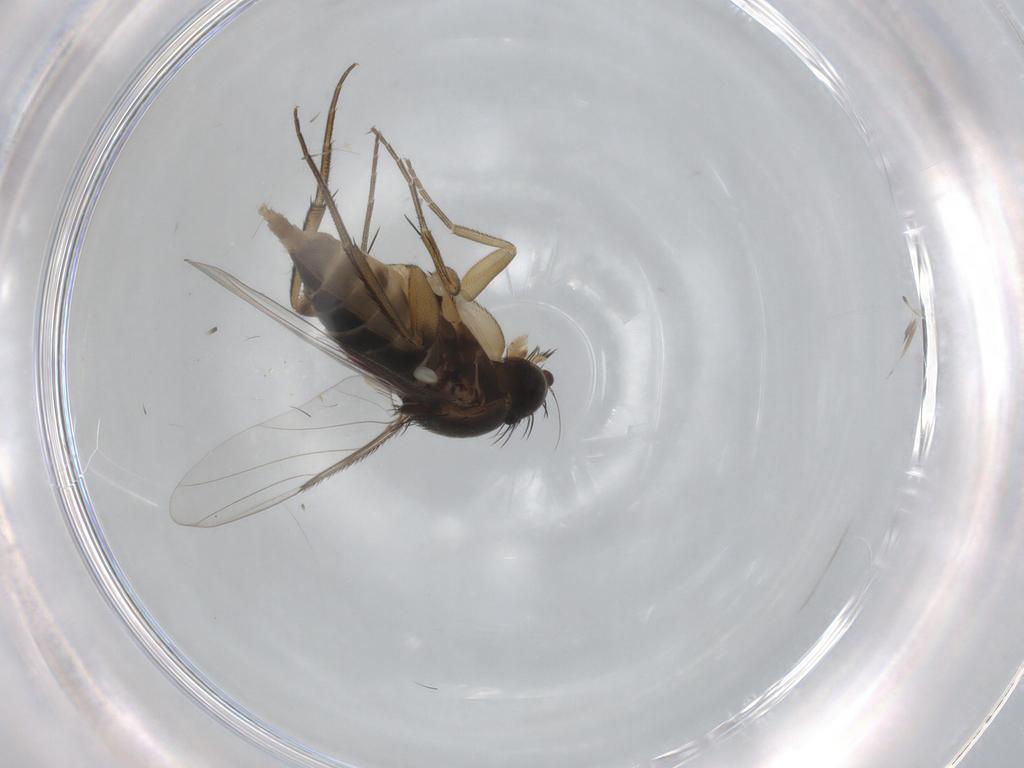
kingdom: Animalia
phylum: Arthropoda
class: Insecta
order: Diptera
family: Phoridae
